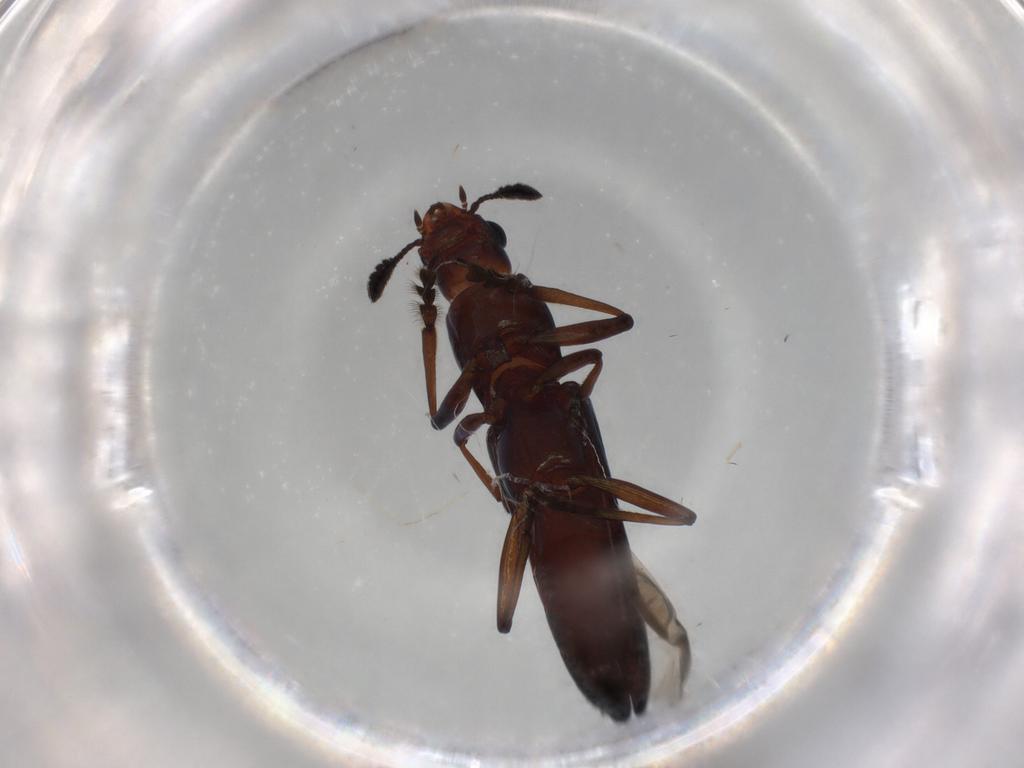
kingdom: Animalia
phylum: Arthropoda
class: Insecta
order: Coleoptera
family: Erotylidae
